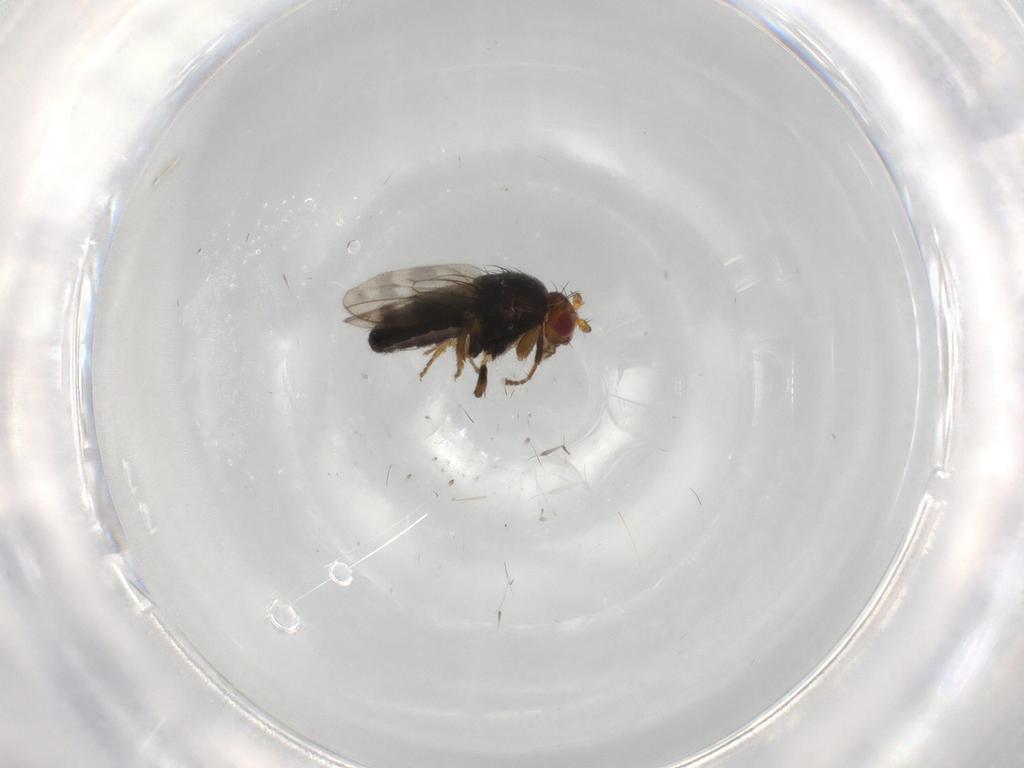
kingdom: Animalia
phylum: Arthropoda
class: Insecta
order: Diptera
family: Sphaeroceridae
